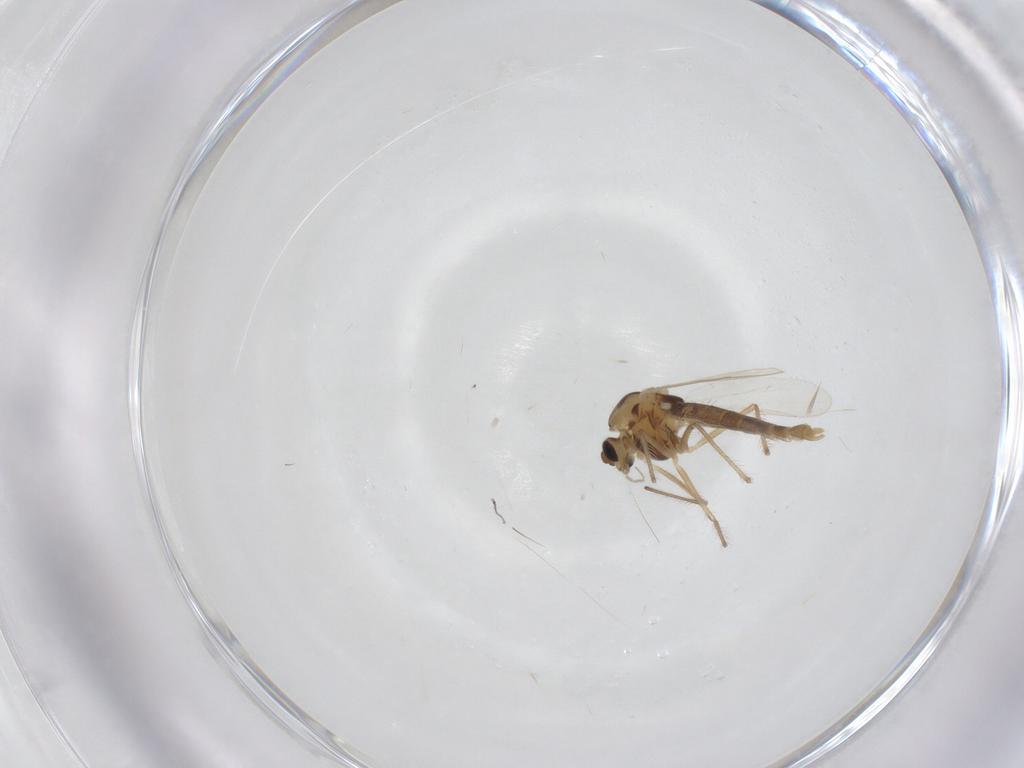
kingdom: Animalia
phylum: Arthropoda
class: Insecta
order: Diptera
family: Chironomidae
